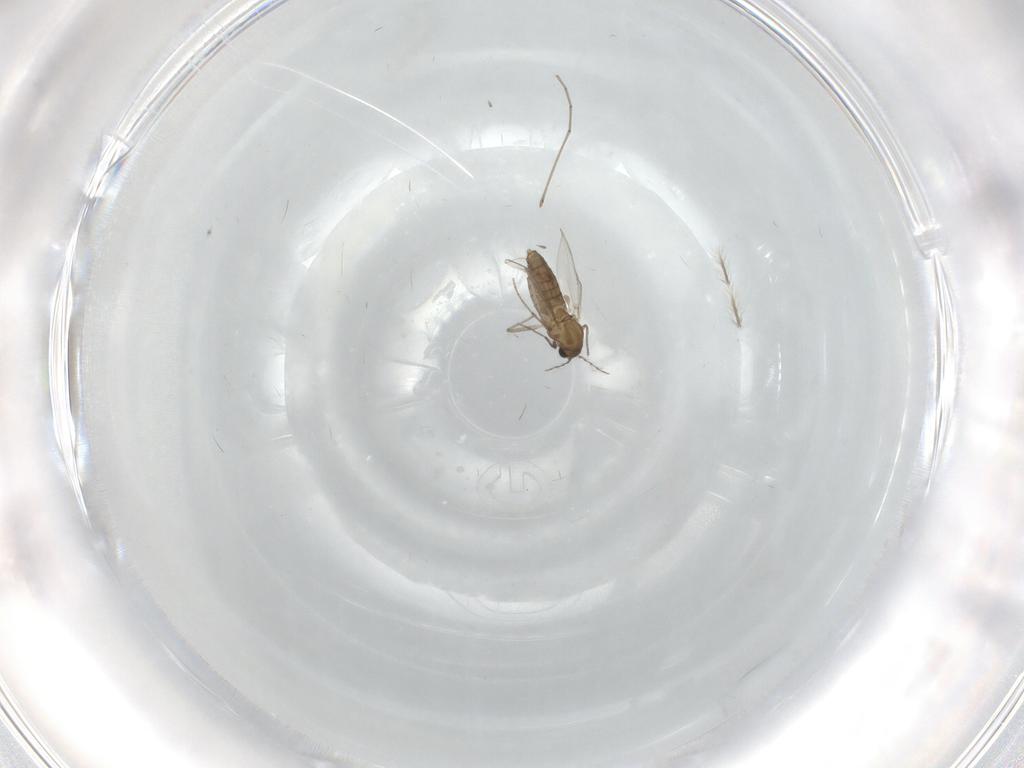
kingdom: Animalia
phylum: Arthropoda
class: Insecta
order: Diptera
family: Chironomidae
